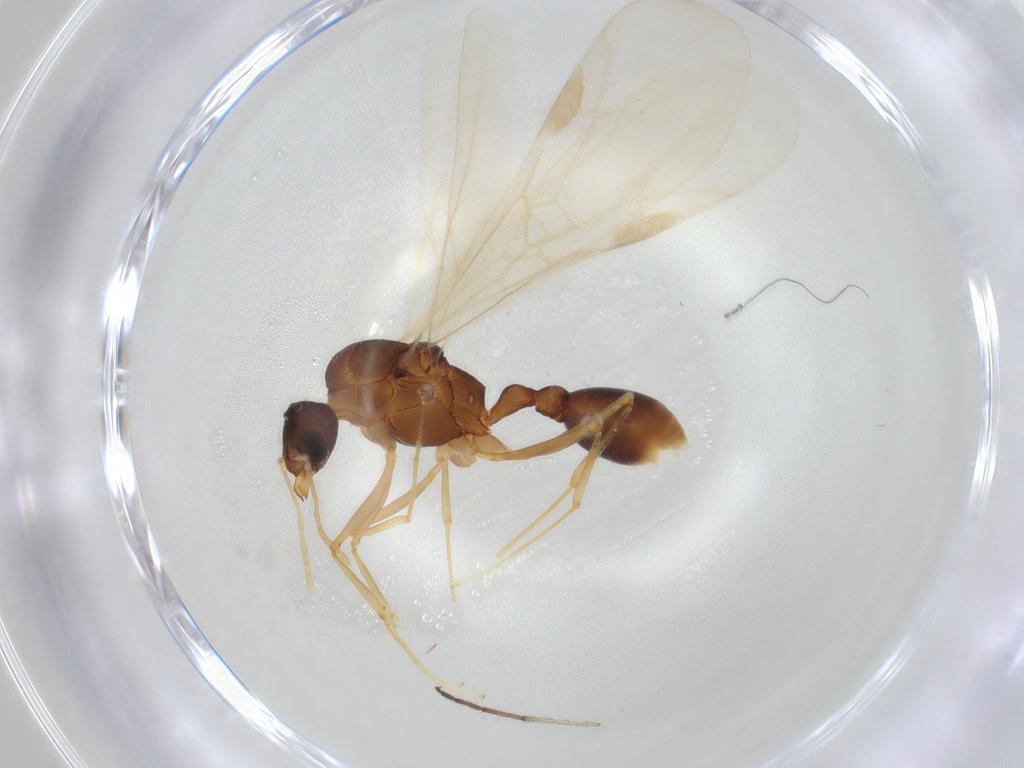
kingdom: Animalia
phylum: Arthropoda
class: Insecta
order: Hymenoptera
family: Formicidae
